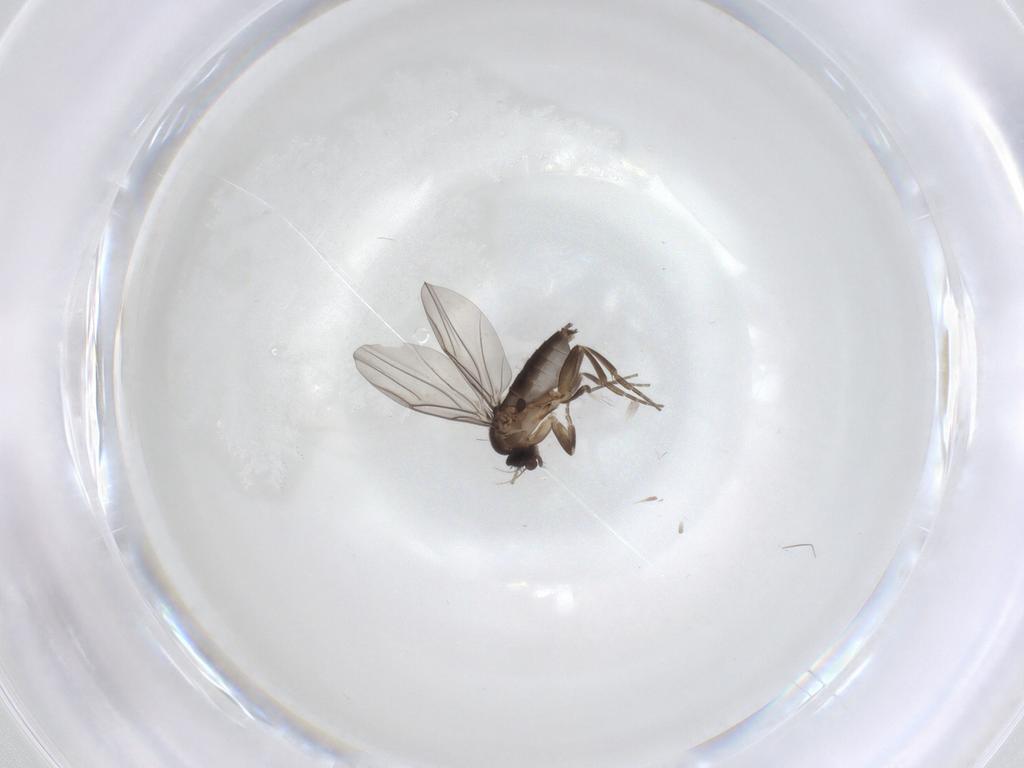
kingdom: Animalia
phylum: Arthropoda
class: Insecta
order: Diptera
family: Phoridae
